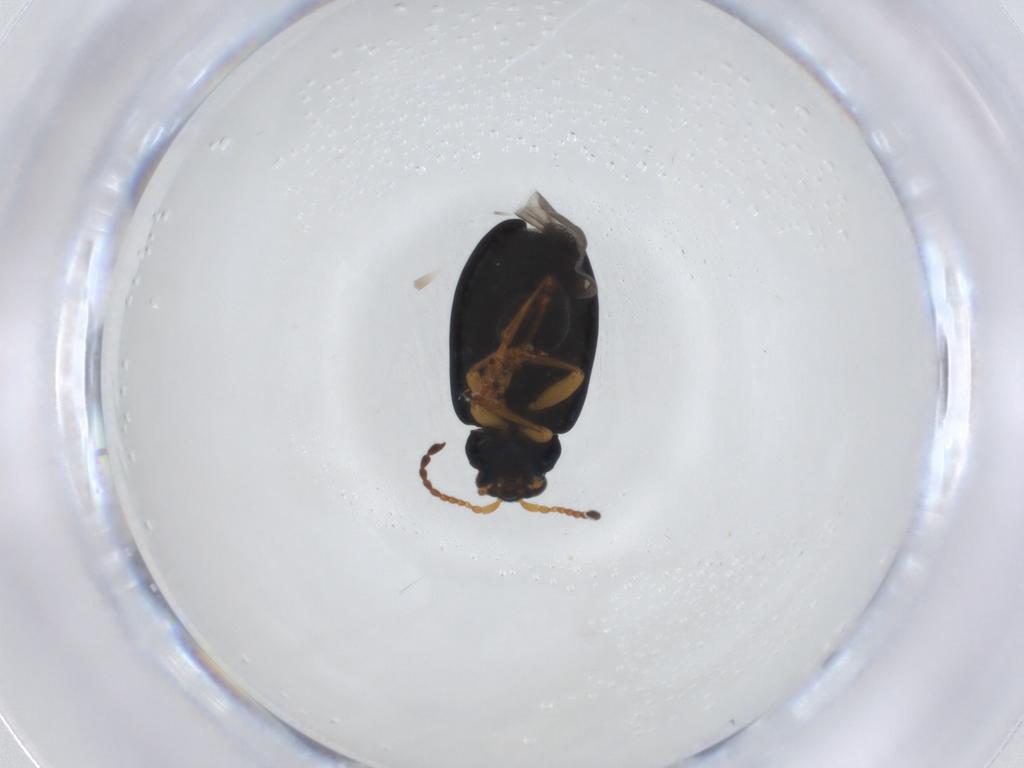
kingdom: Animalia
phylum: Arthropoda
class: Insecta
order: Coleoptera
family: Chrysomelidae
